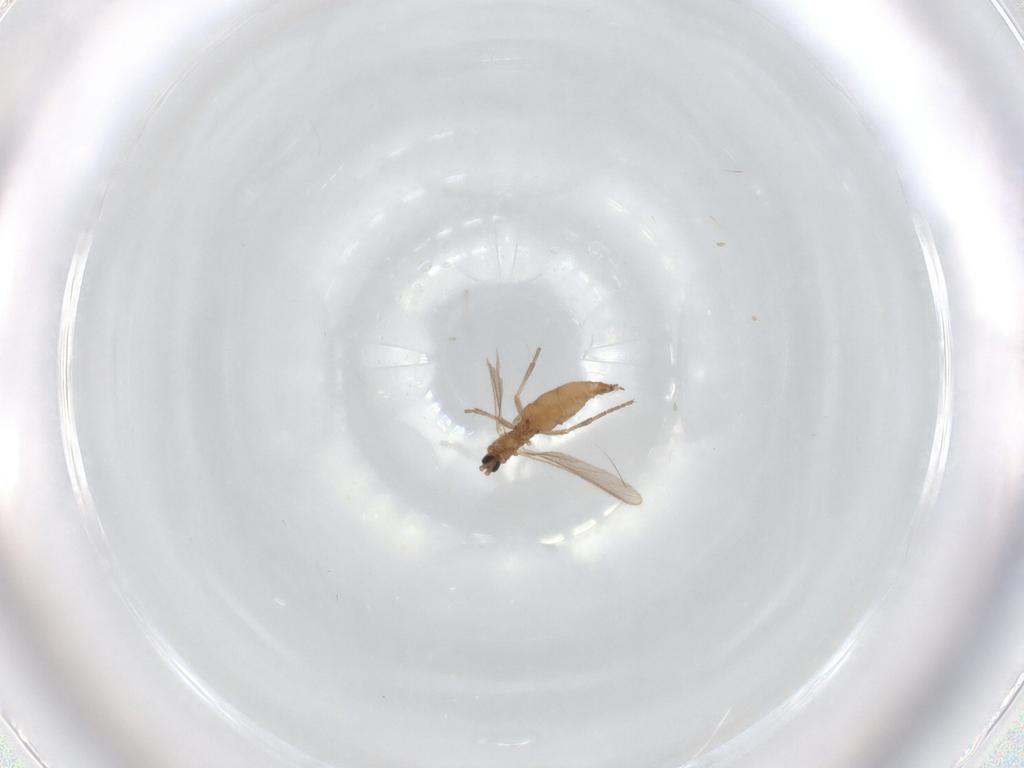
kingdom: Animalia
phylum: Arthropoda
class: Insecta
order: Diptera
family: Sciaridae
